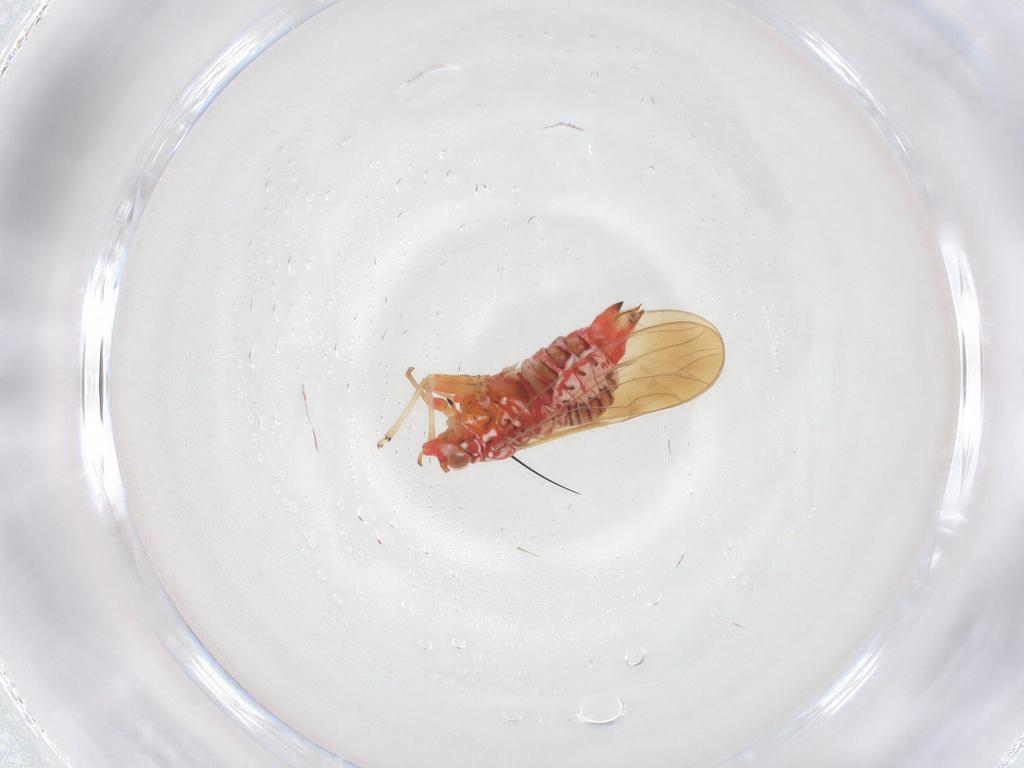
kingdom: Animalia
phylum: Arthropoda
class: Insecta
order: Hemiptera
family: Psyllidae
